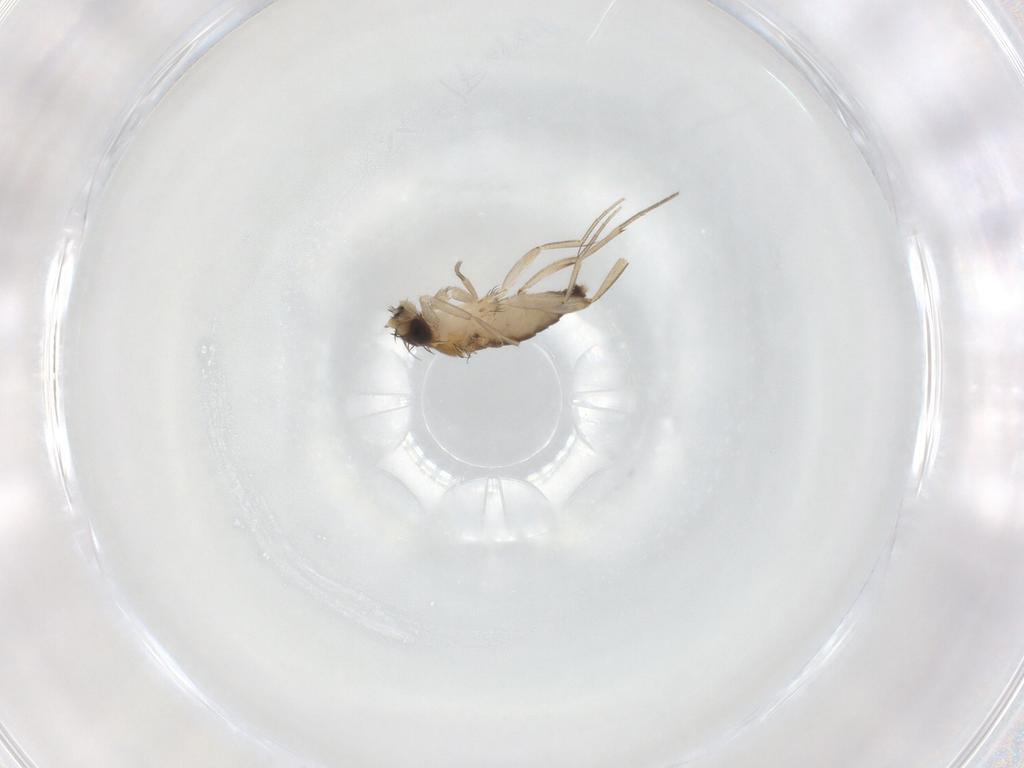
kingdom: Animalia
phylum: Arthropoda
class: Insecta
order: Diptera
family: Phoridae
